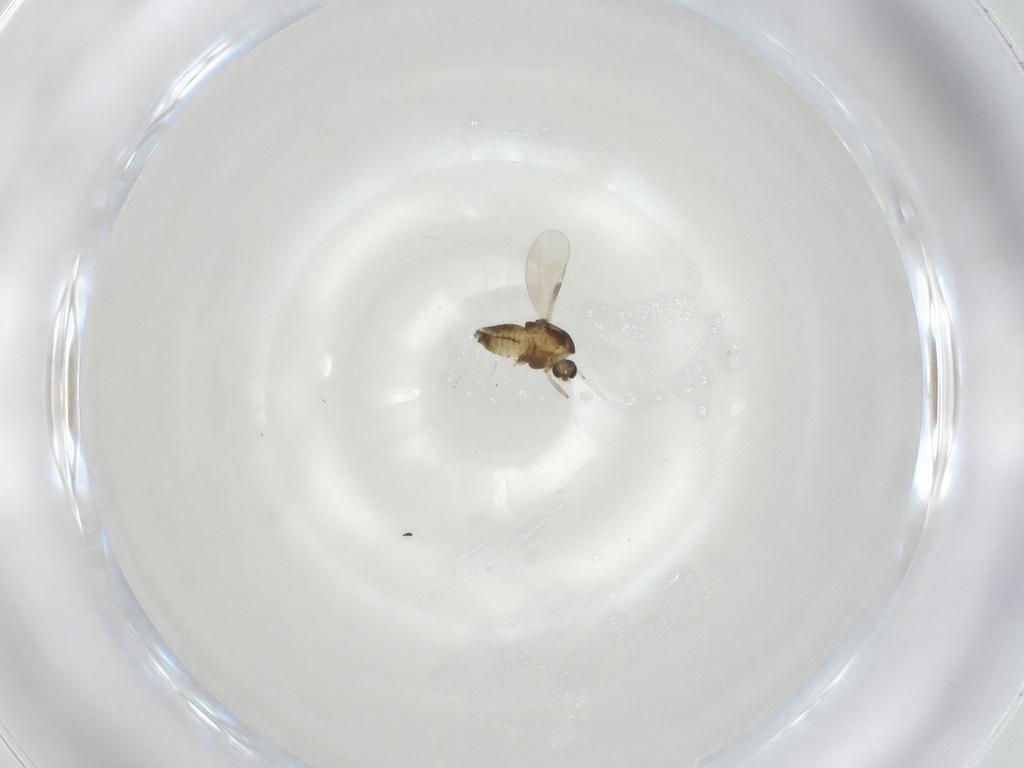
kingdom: Animalia
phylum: Arthropoda
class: Insecta
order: Diptera
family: Chironomidae
